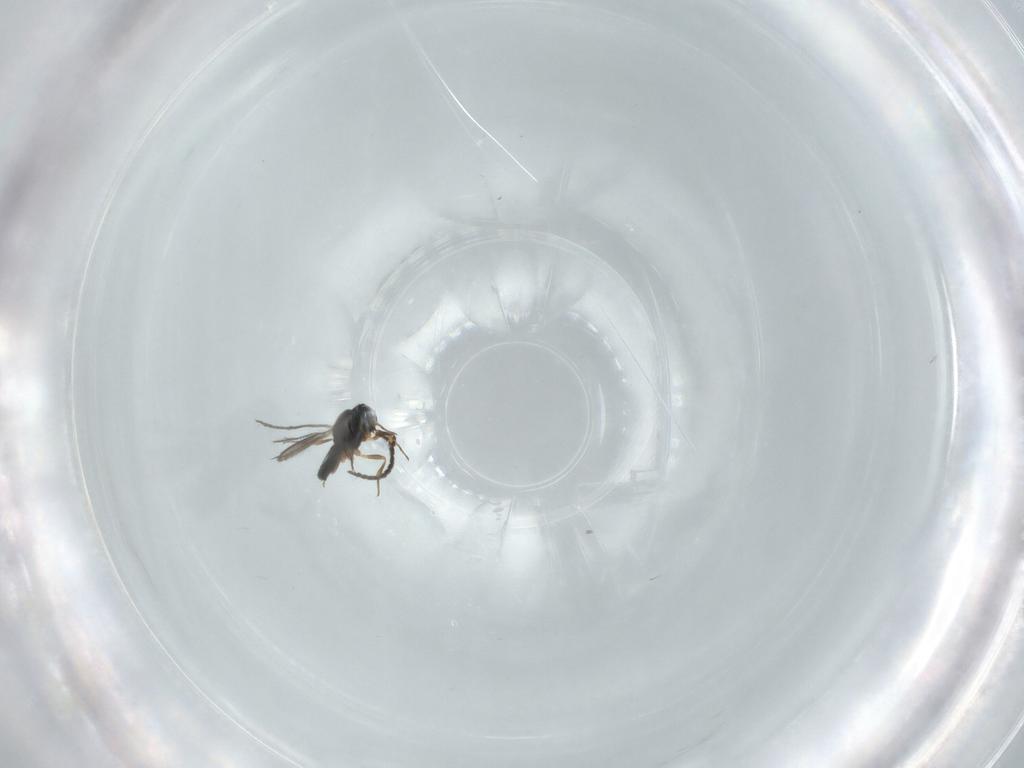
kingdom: Animalia
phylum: Arthropoda
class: Insecta
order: Hymenoptera
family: Scelionidae
